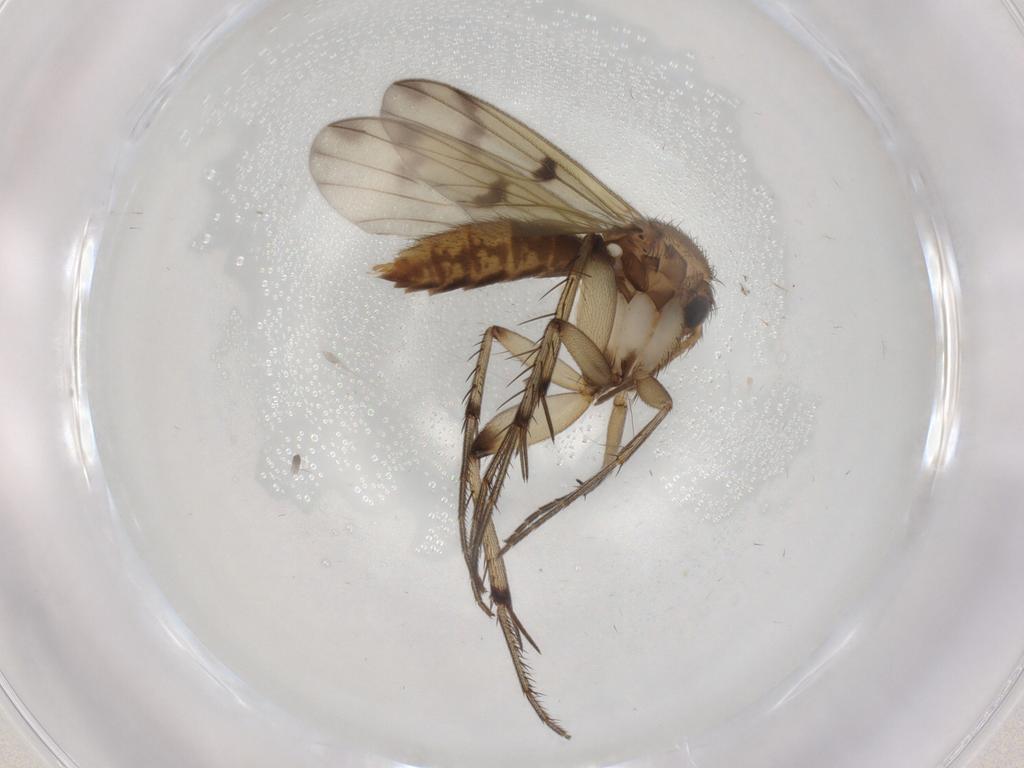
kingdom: Animalia
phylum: Arthropoda
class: Insecta
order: Diptera
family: Mycetophilidae
